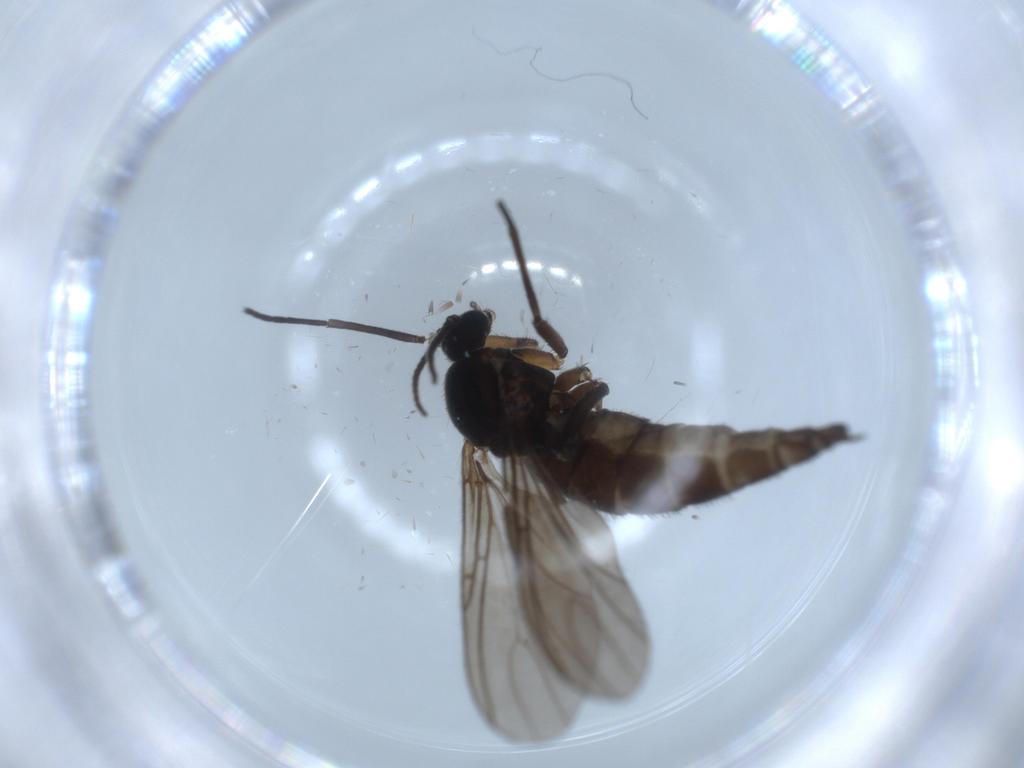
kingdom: Animalia
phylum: Arthropoda
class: Insecta
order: Diptera
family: Sciaridae
